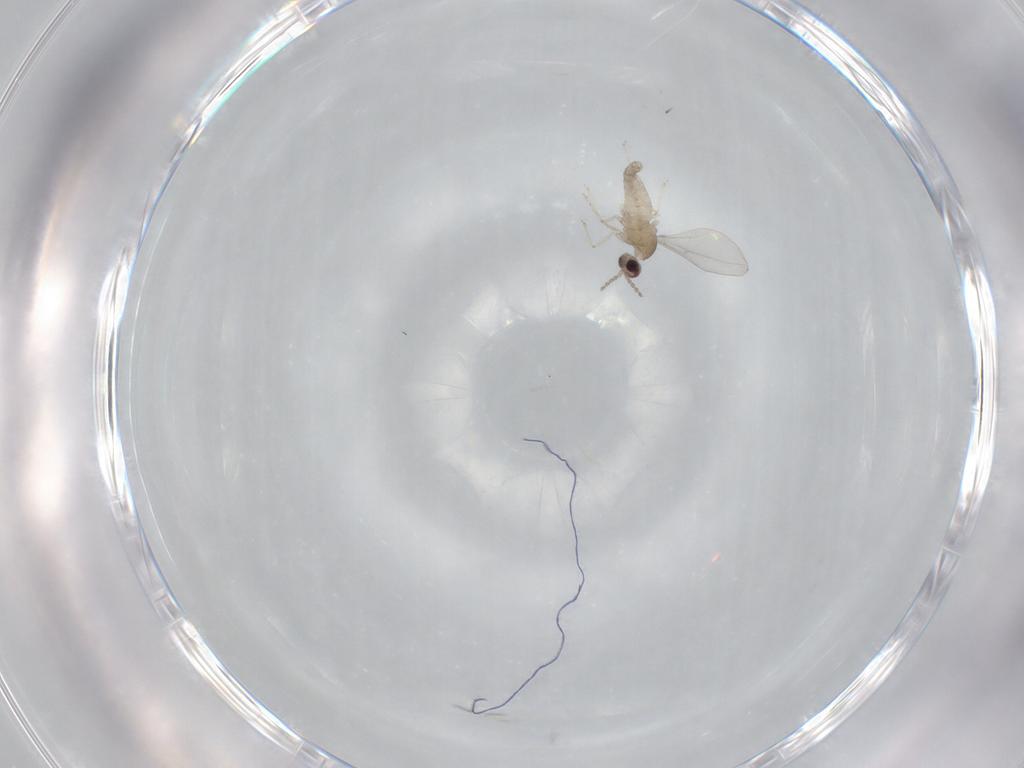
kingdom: Animalia
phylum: Arthropoda
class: Insecta
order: Diptera
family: Cecidomyiidae
